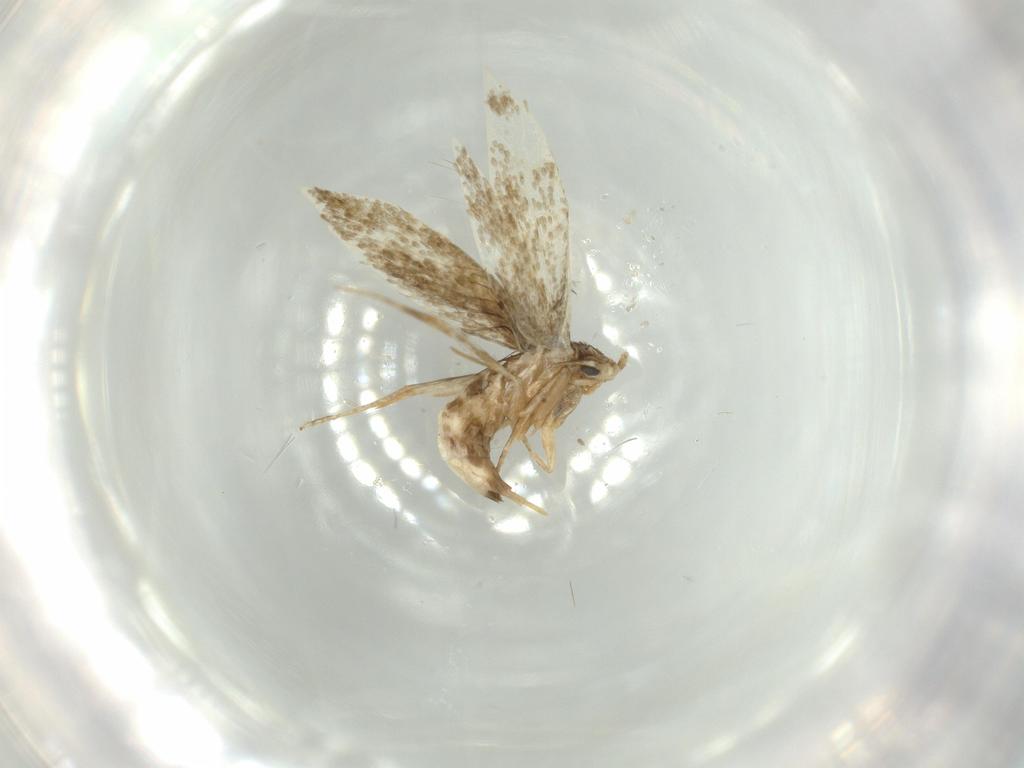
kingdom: Animalia
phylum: Arthropoda
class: Insecta
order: Lepidoptera
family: Tineidae
